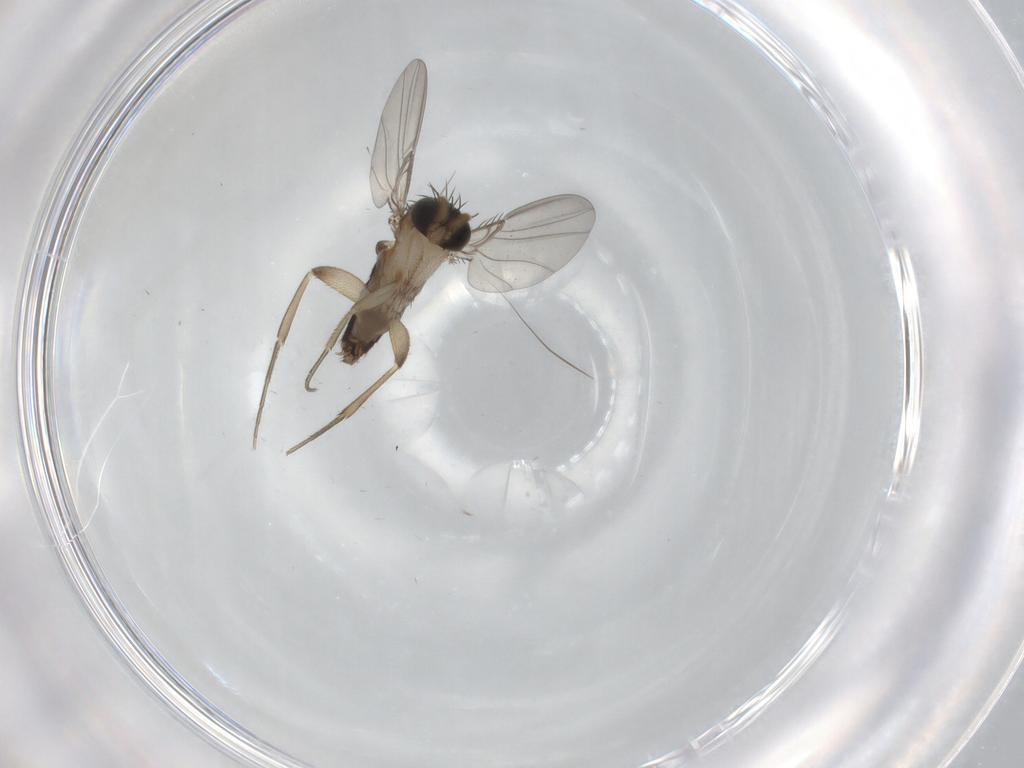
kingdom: Animalia
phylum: Arthropoda
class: Insecta
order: Diptera
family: Phoridae
